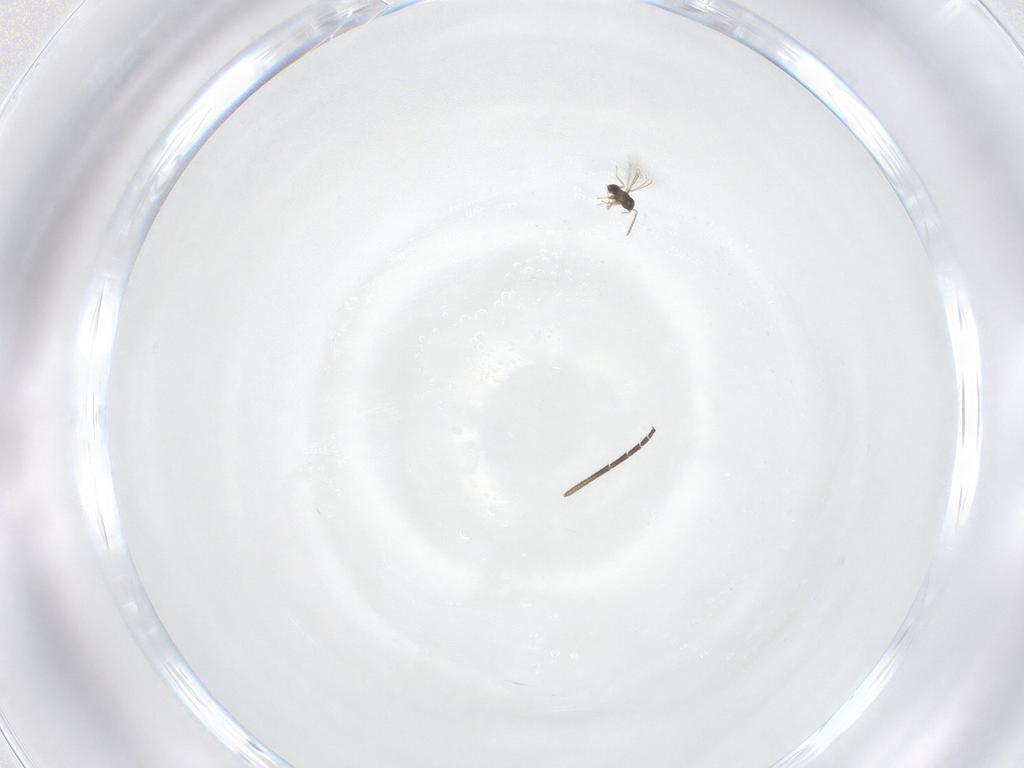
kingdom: Animalia
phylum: Arthropoda
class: Insecta
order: Diptera
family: Sciaridae
